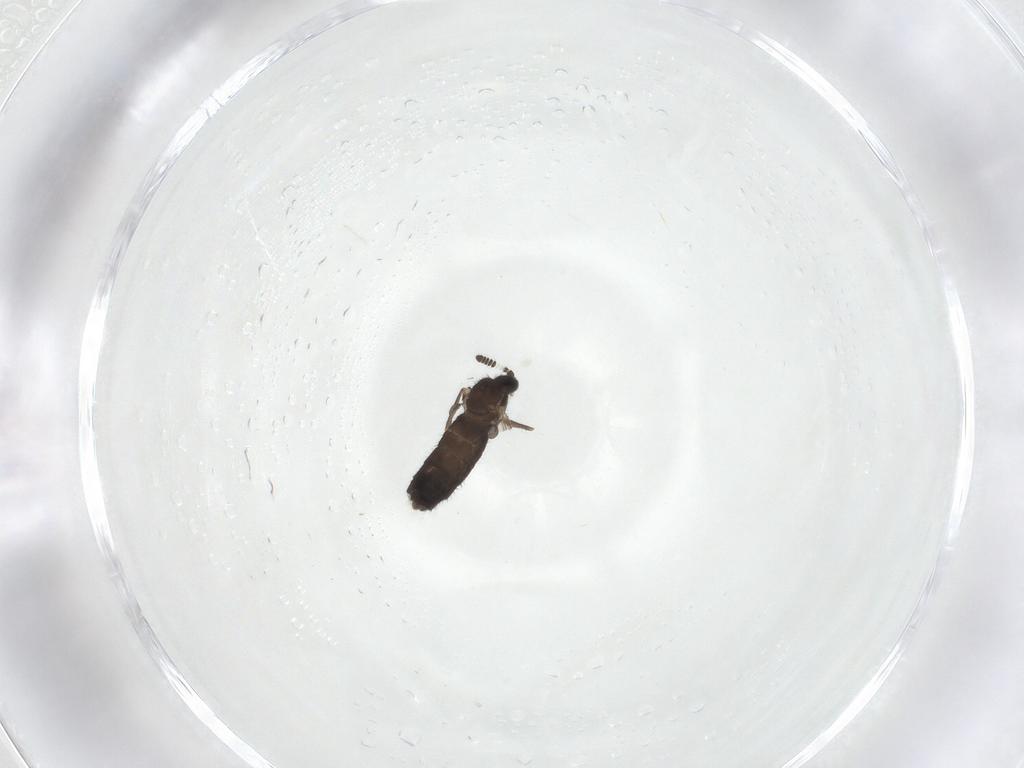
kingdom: Animalia
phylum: Arthropoda
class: Insecta
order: Diptera
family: Scatopsidae
